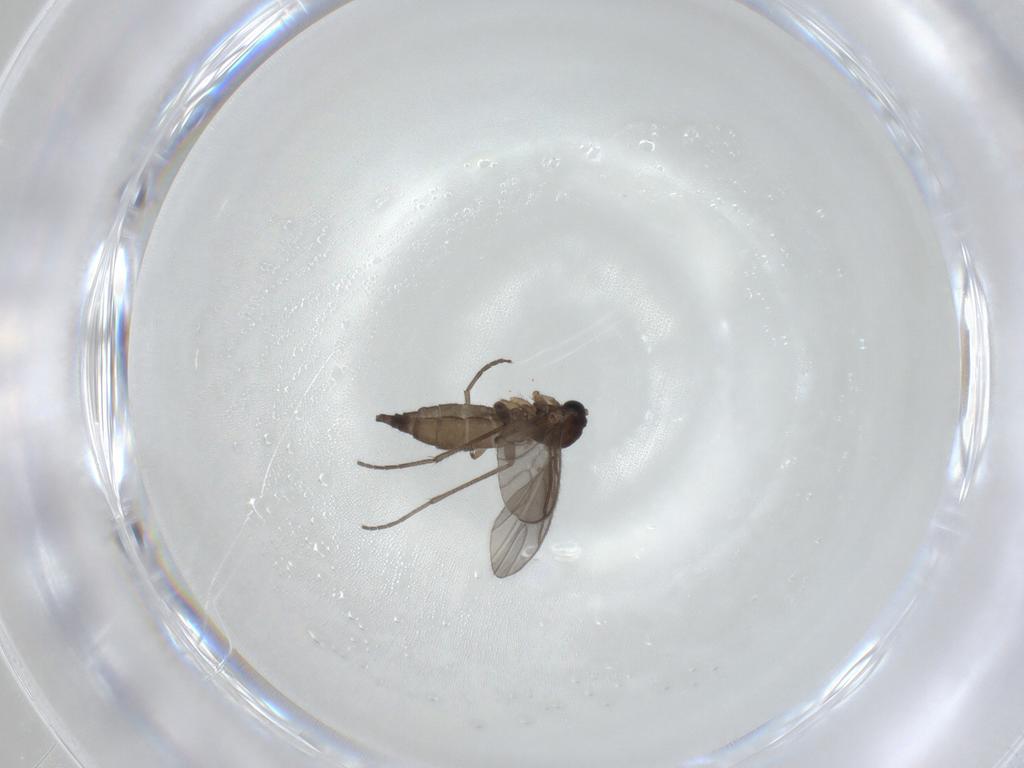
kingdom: Animalia
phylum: Arthropoda
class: Insecta
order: Diptera
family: Sciaridae
